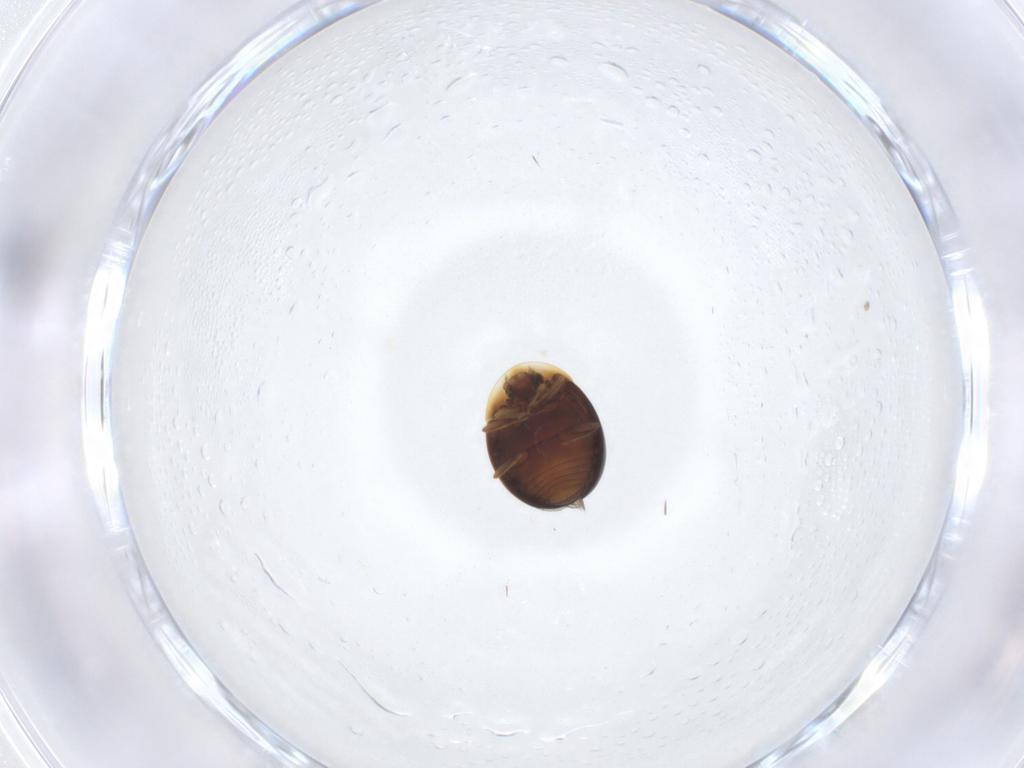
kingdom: Animalia
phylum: Arthropoda
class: Insecta
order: Coleoptera
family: Corylophidae
